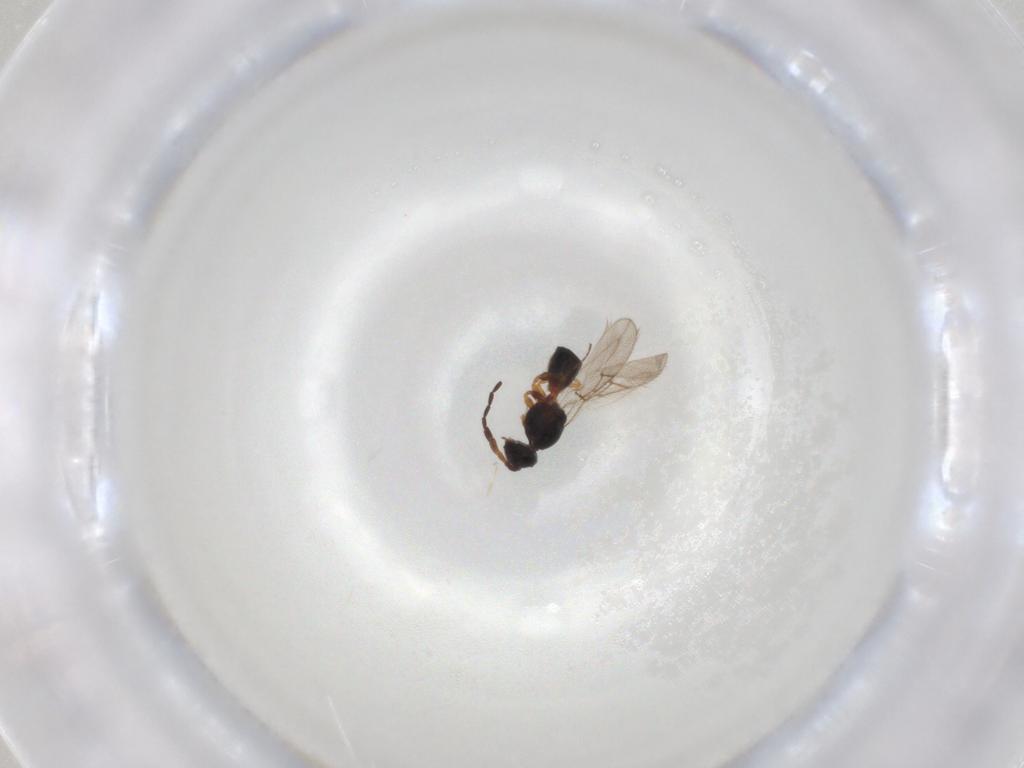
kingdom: Animalia
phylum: Arthropoda
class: Insecta
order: Hymenoptera
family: Apidae
